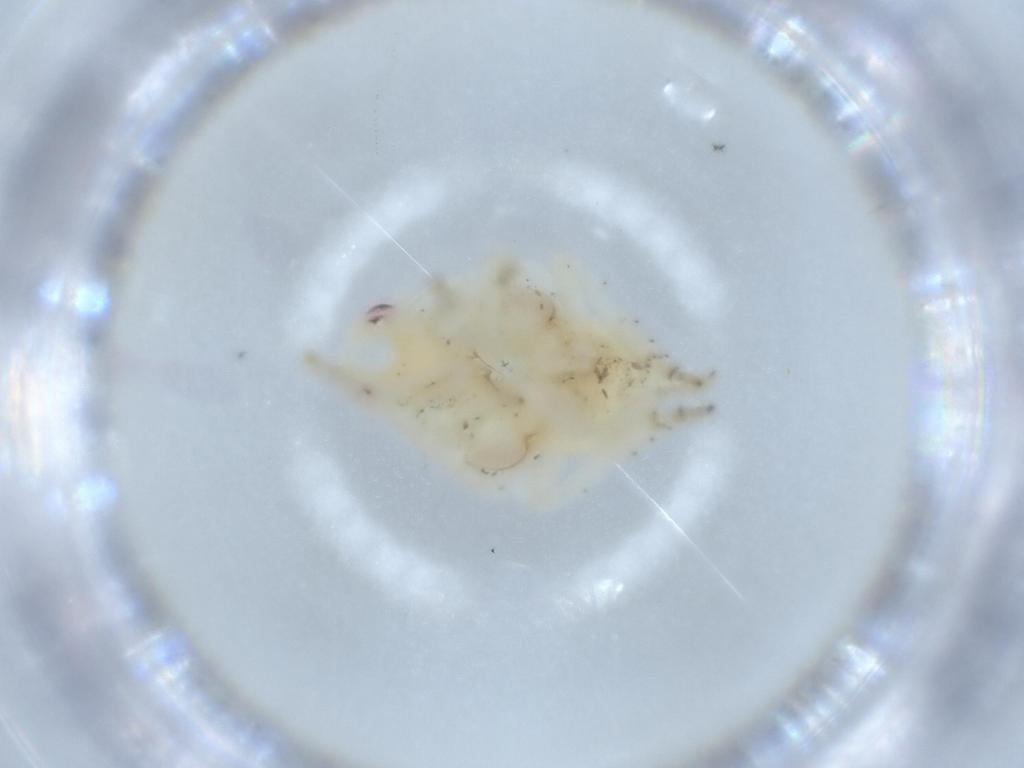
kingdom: Animalia
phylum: Arthropoda
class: Insecta
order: Hemiptera
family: Flatidae
